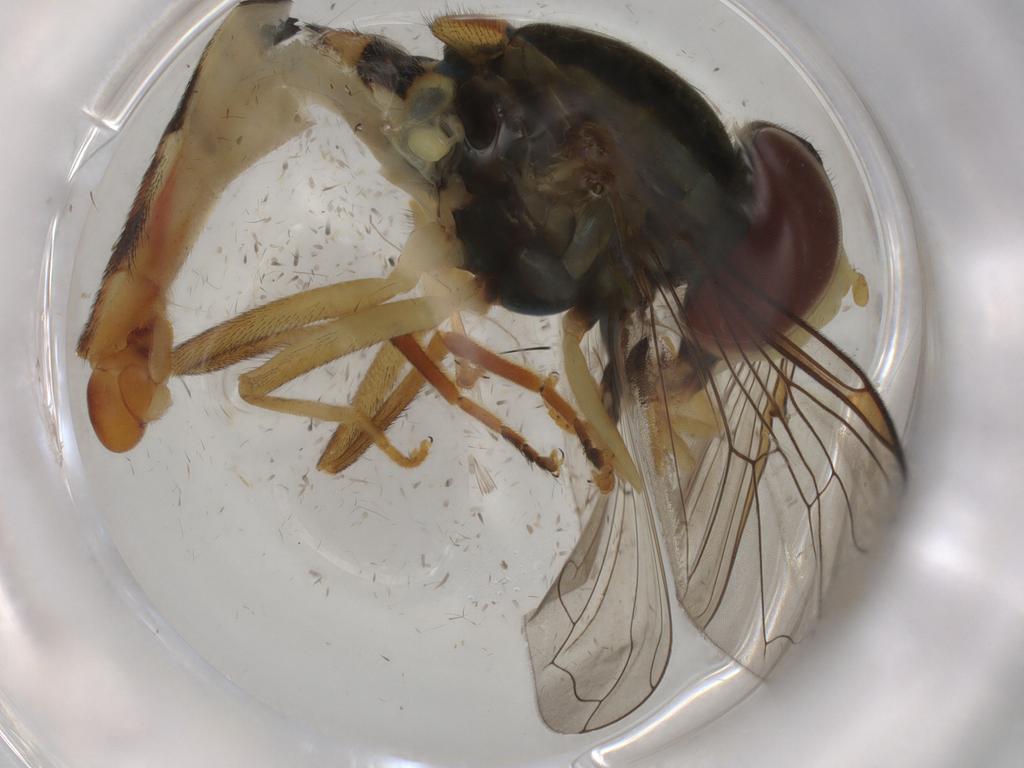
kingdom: Animalia
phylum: Arthropoda
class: Insecta
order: Diptera
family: Syrphidae
